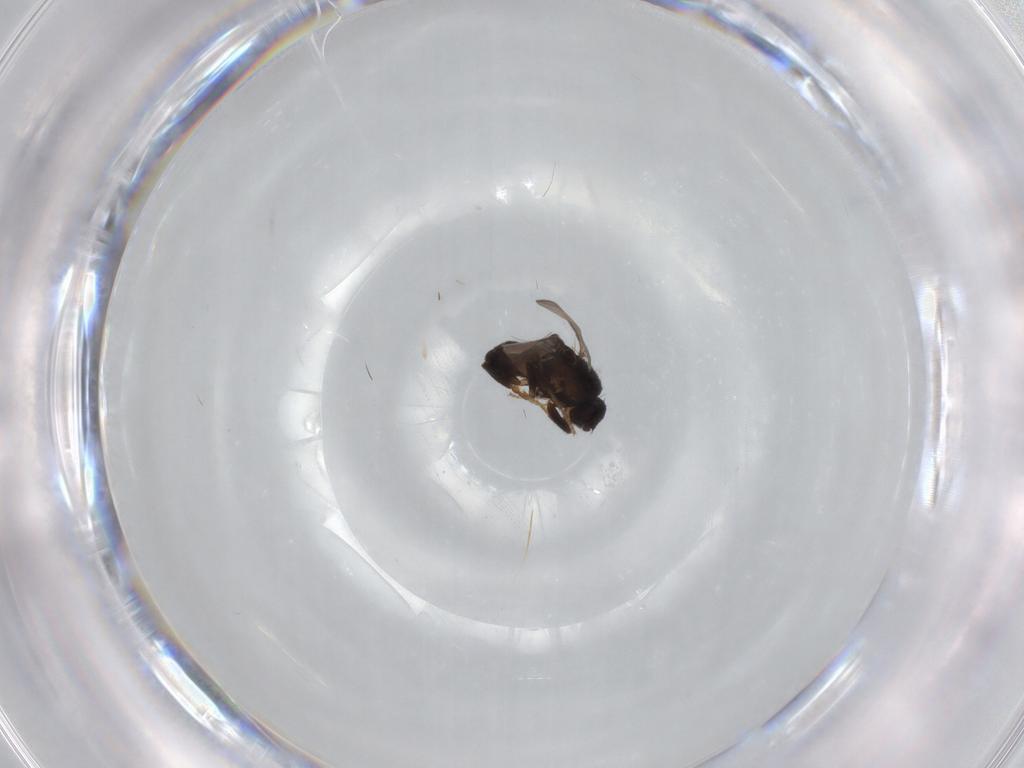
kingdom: Animalia
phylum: Arthropoda
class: Insecta
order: Diptera
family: Sphaeroceridae
